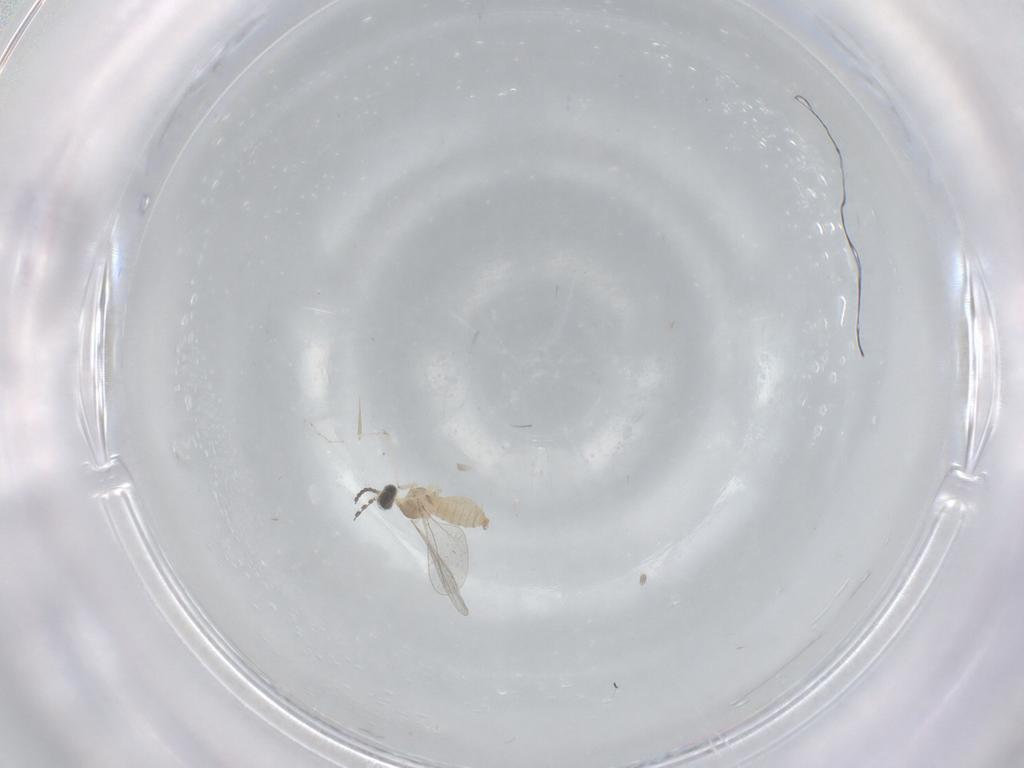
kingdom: Animalia
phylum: Arthropoda
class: Insecta
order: Diptera
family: Cecidomyiidae
